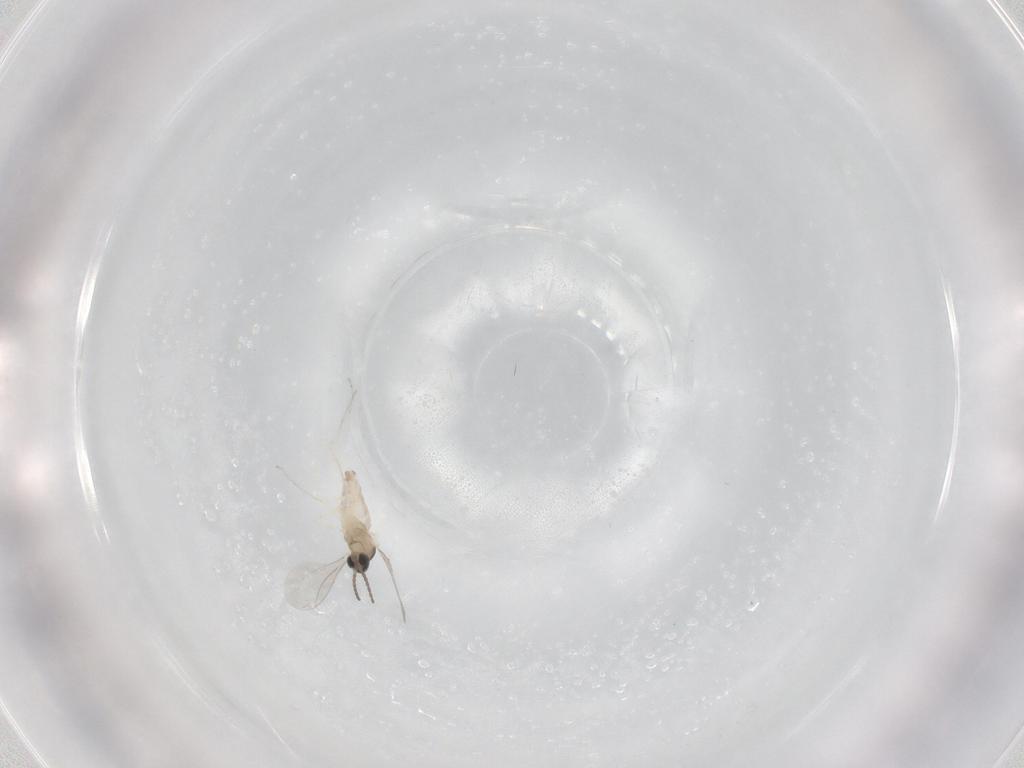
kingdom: Animalia
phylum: Arthropoda
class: Insecta
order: Diptera
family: Cecidomyiidae
